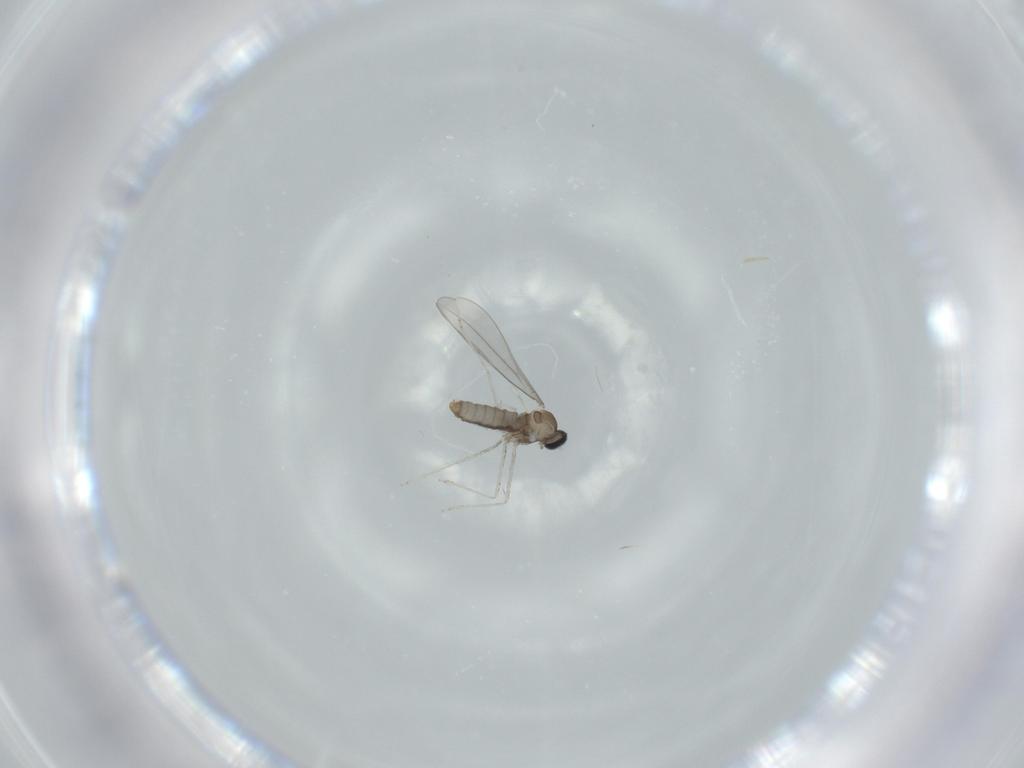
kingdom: Animalia
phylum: Arthropoda
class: Insecta
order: Diptera
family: Cecidomyiidae
